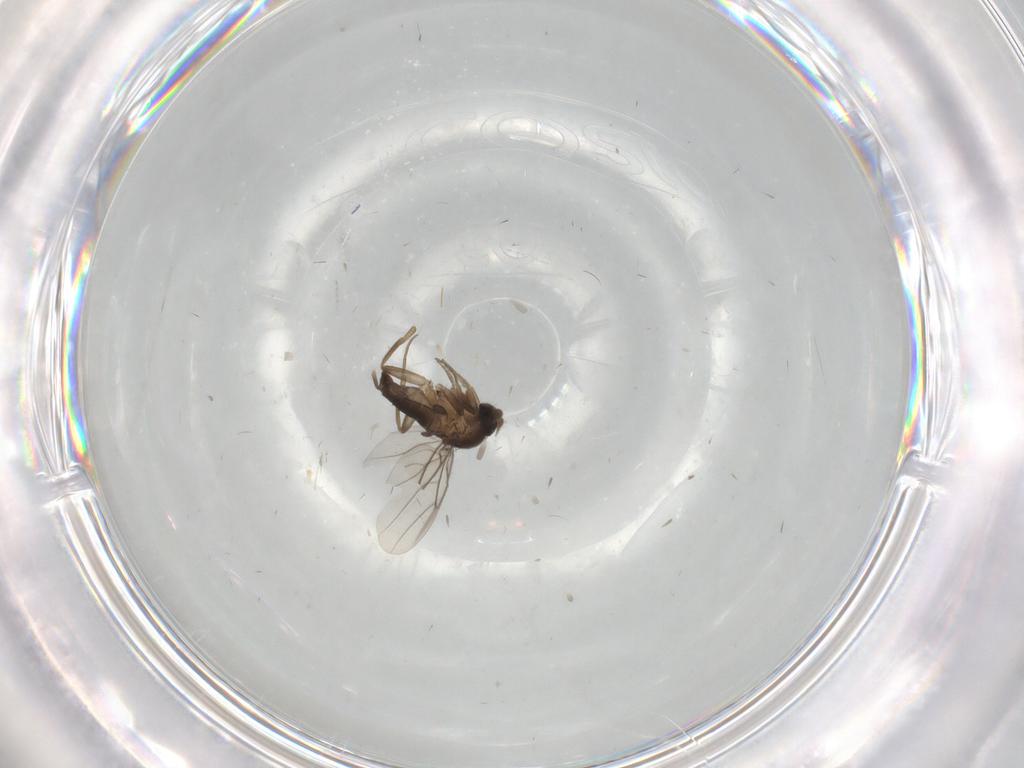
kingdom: Animalia
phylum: Arthropoda
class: Insecta
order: Diptera
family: Phoridae
